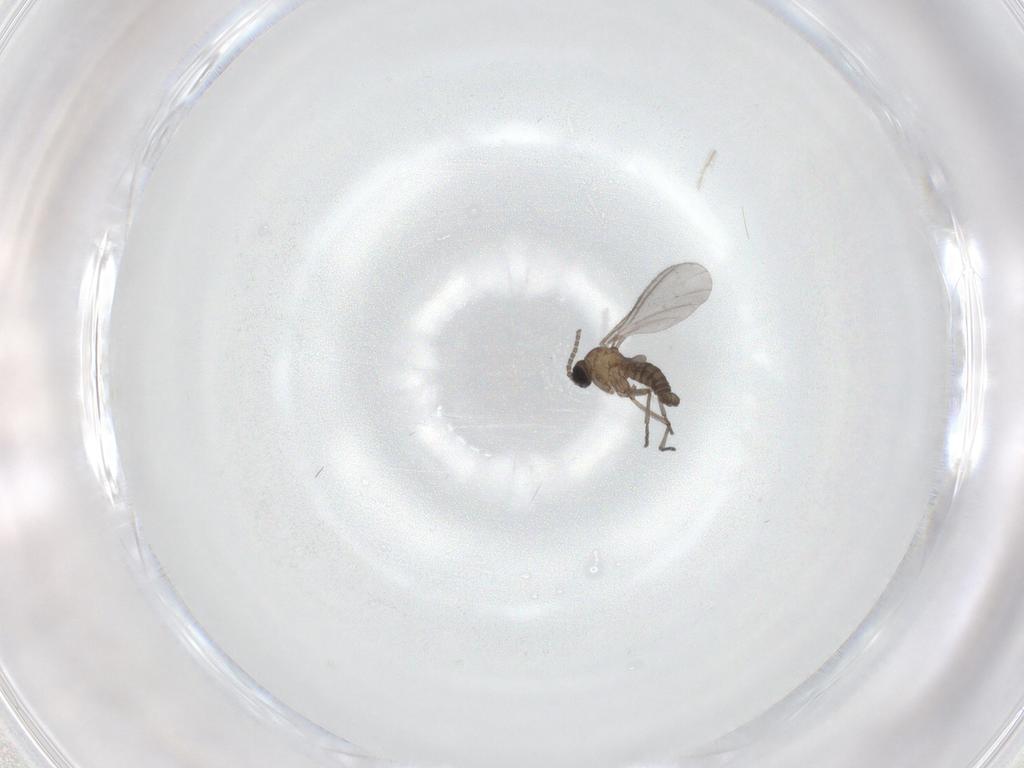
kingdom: Animalia
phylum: Arthropoda
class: Insecta
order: Diptera
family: Sciaridae
